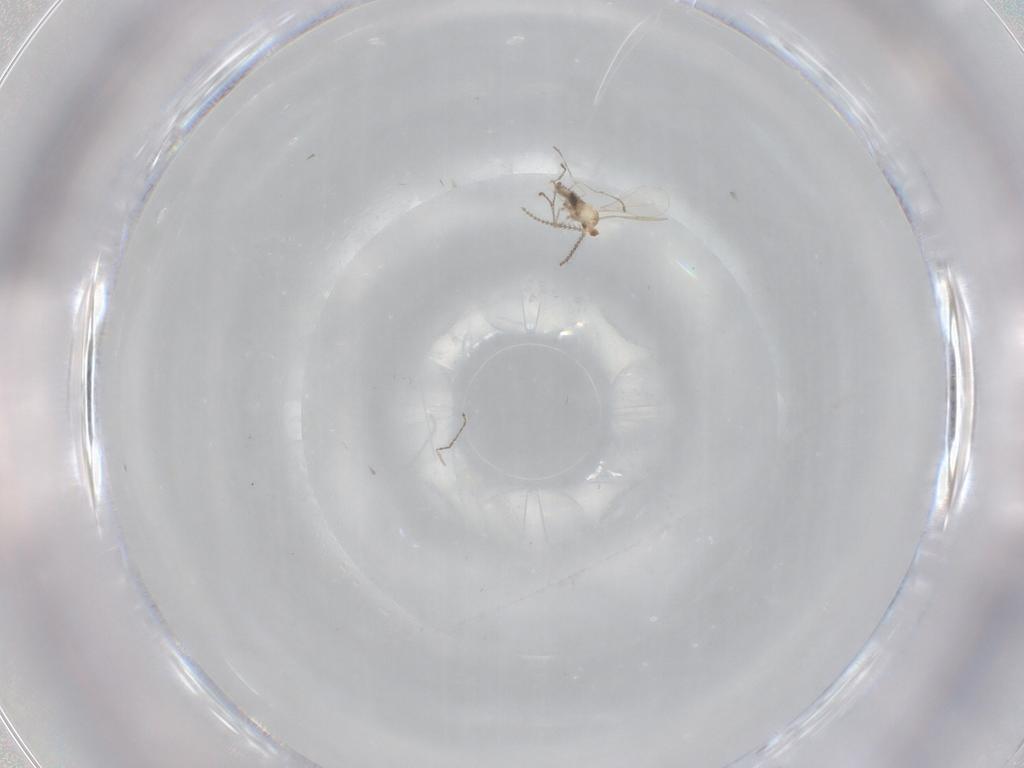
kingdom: Animalia
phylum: Arthropoda
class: Insecta
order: Diptera
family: Cecidomyiidae
